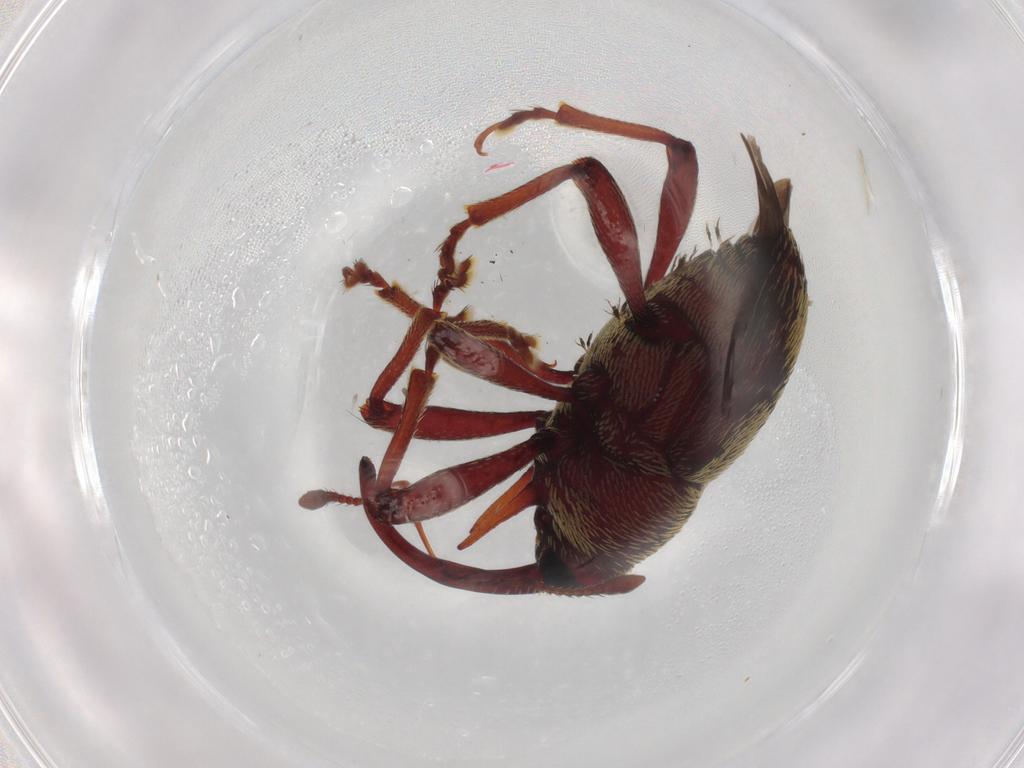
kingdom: Animalia
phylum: Arthropoda
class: Insecta
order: Coleoptera
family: Curculionidae
